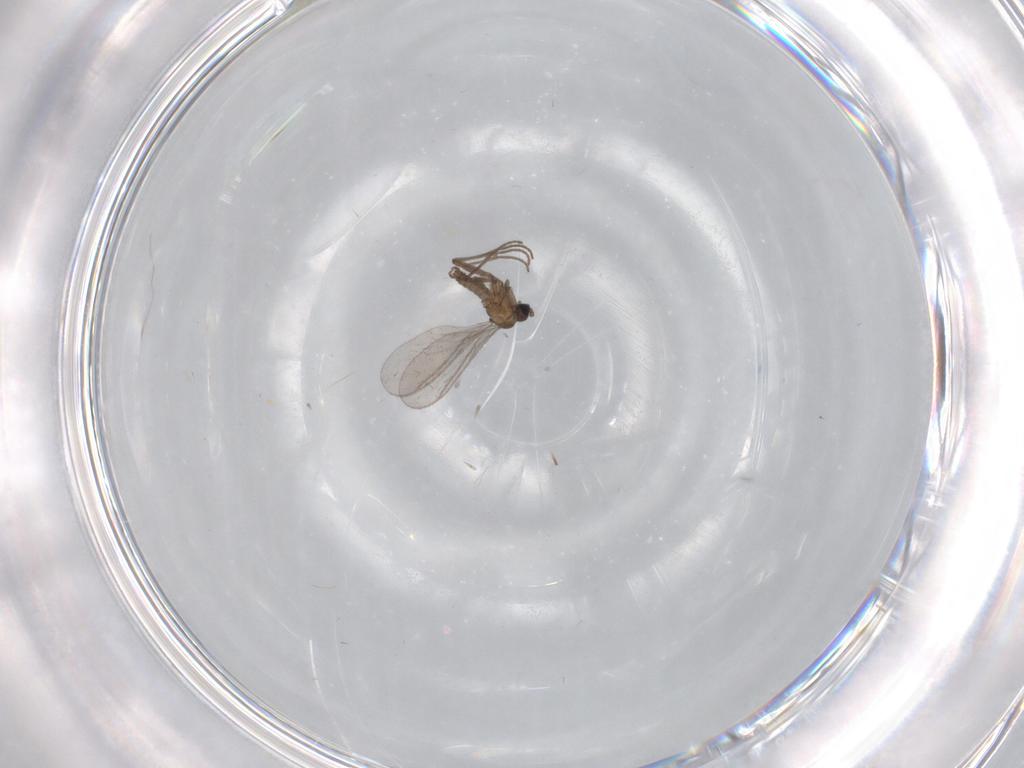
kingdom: Animalia
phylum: Arthropoda
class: Insecta
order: Diptera
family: Sciaridae
